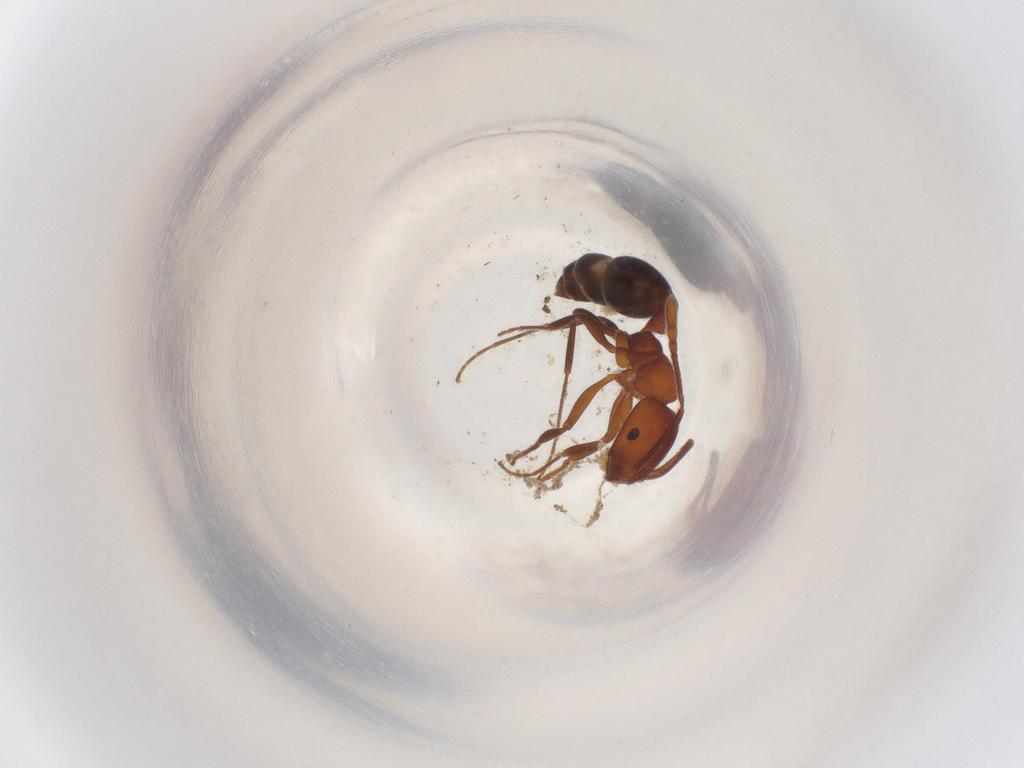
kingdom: Animalia
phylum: Arthropoda
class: Insecta
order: Hymenoptera
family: Formicidae
